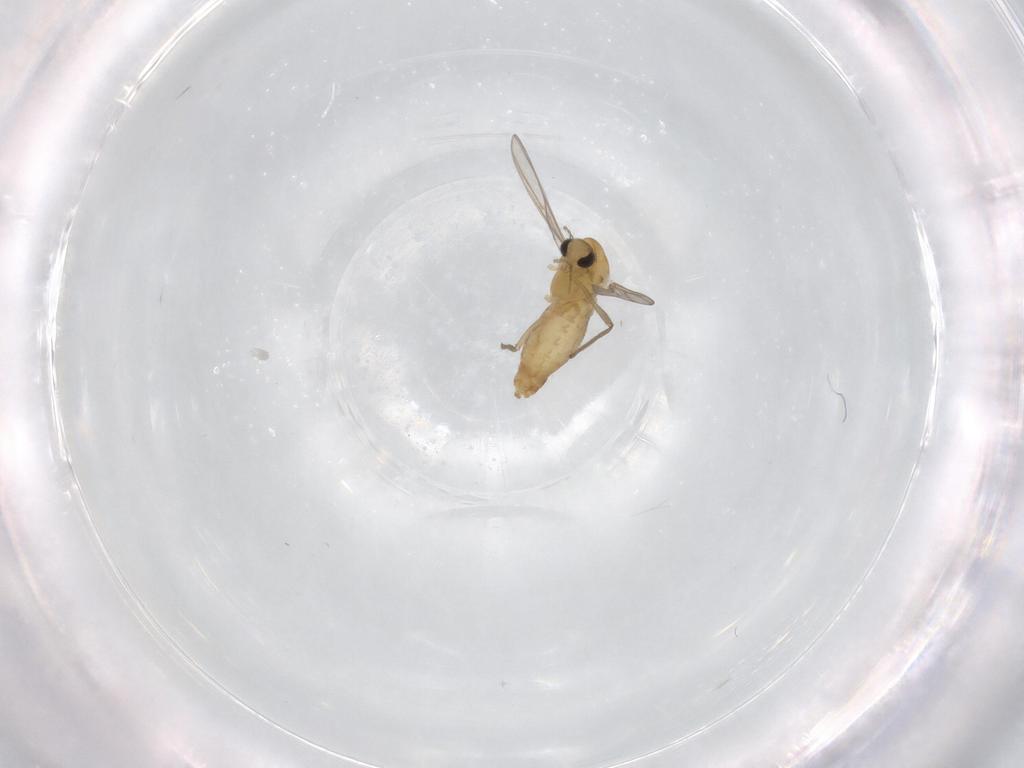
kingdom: Animalia
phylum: Arthropoda
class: Insecta
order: Diptera
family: Chironomidae
